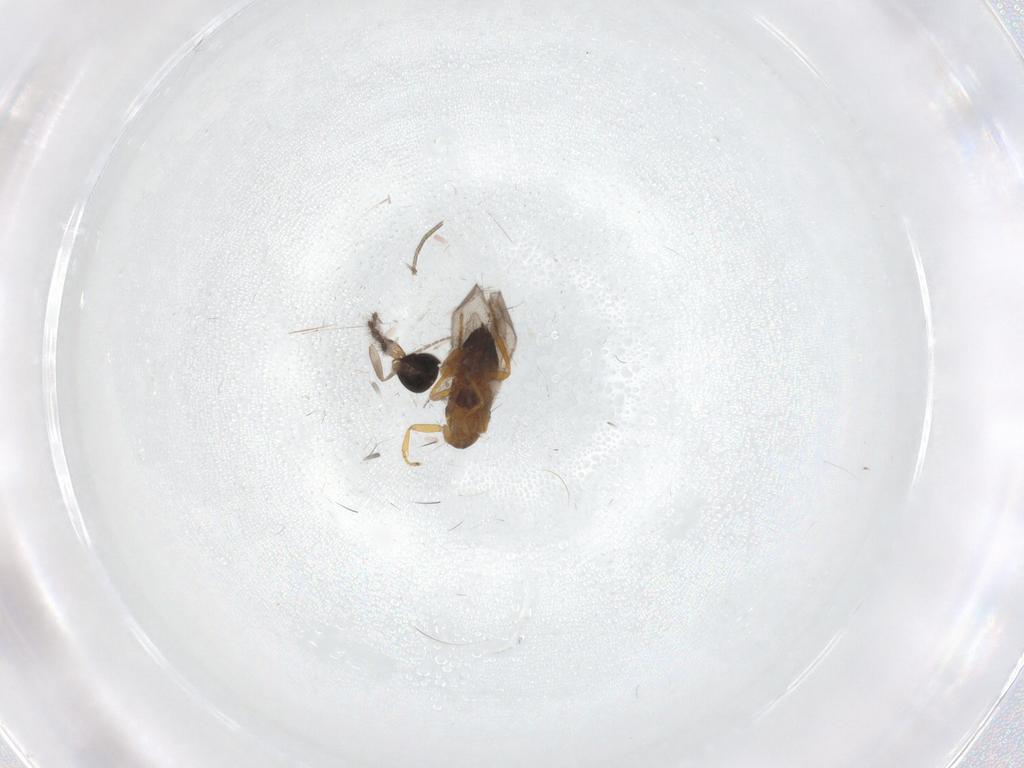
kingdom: Animalia
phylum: Arthropoda
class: Insecta
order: Diptera
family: Phoridae
